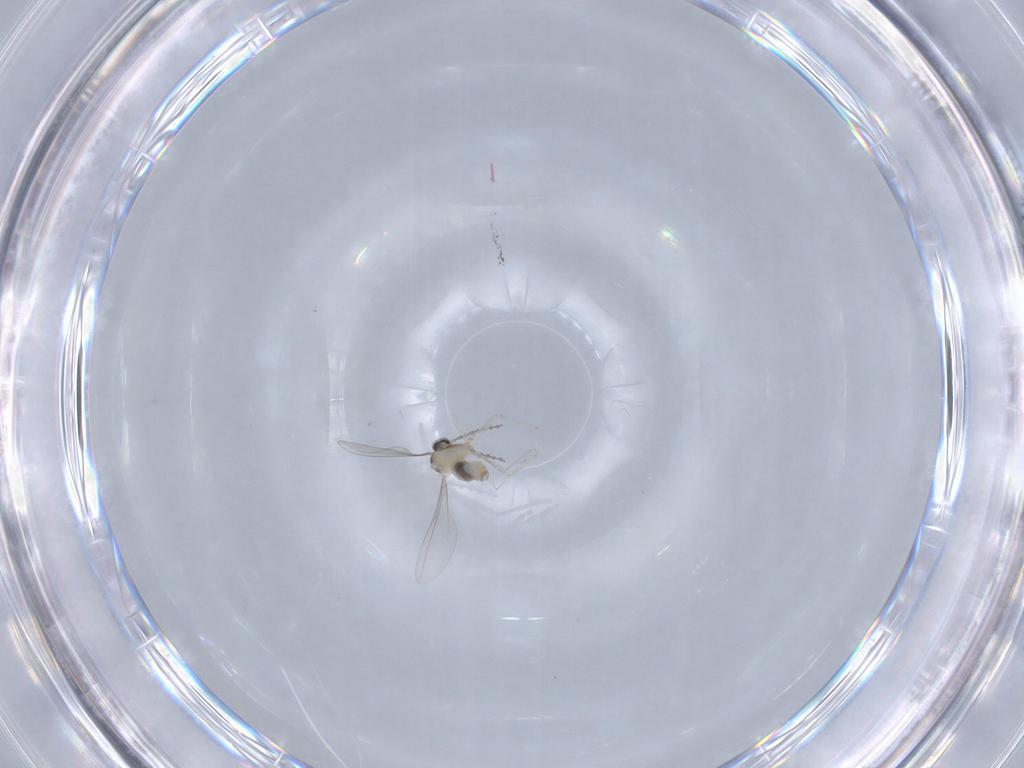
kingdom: Animalia
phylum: Arthropoda
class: Insecta
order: Diptera
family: Cecidomyiidae
